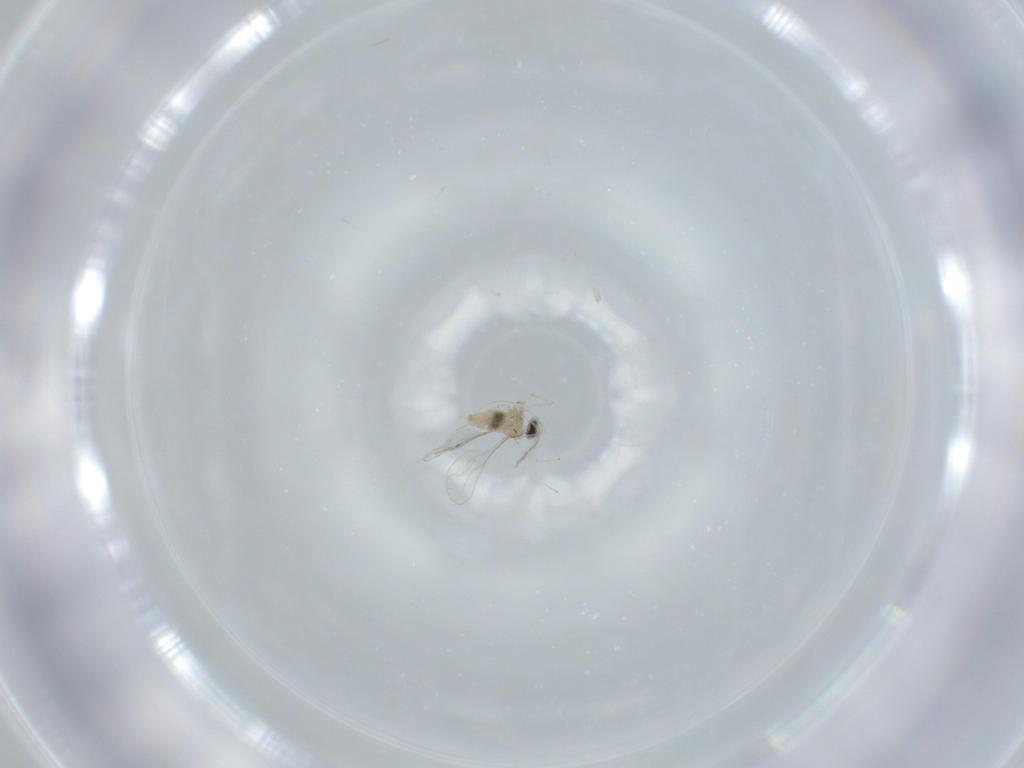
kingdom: Animalia
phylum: Arthropoda
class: Insecta
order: Diptera
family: Cecidomyiidae
